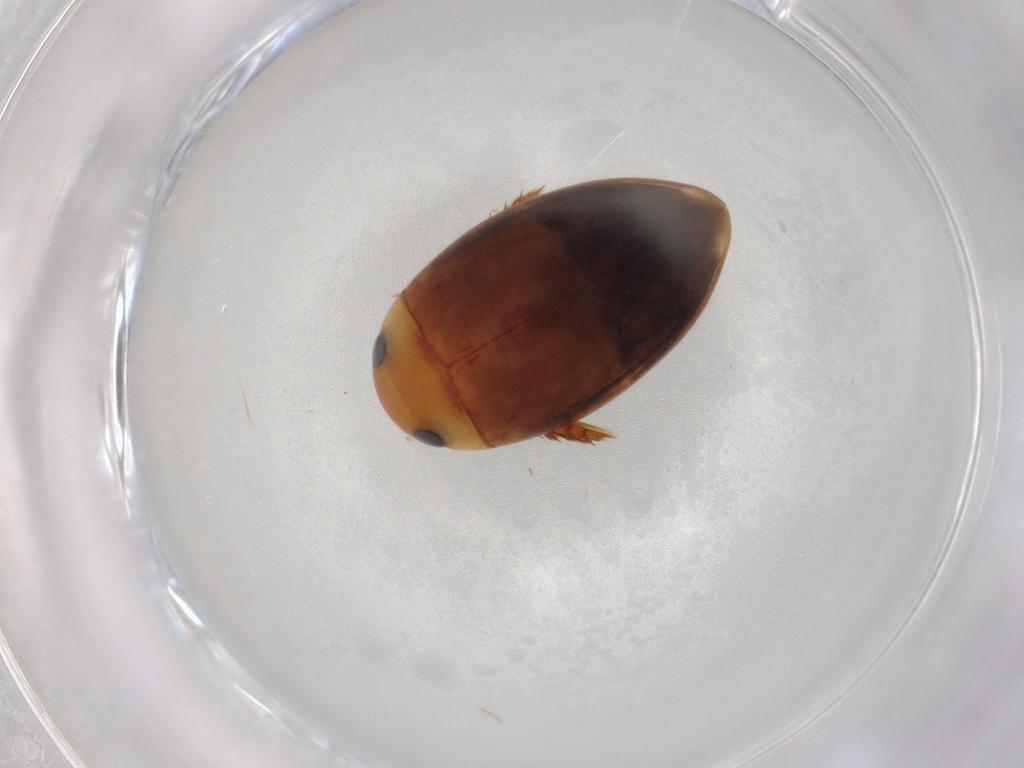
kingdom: Animalia
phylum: Arthropoda
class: Insecta
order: Coleoptera
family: Dytiscidae
